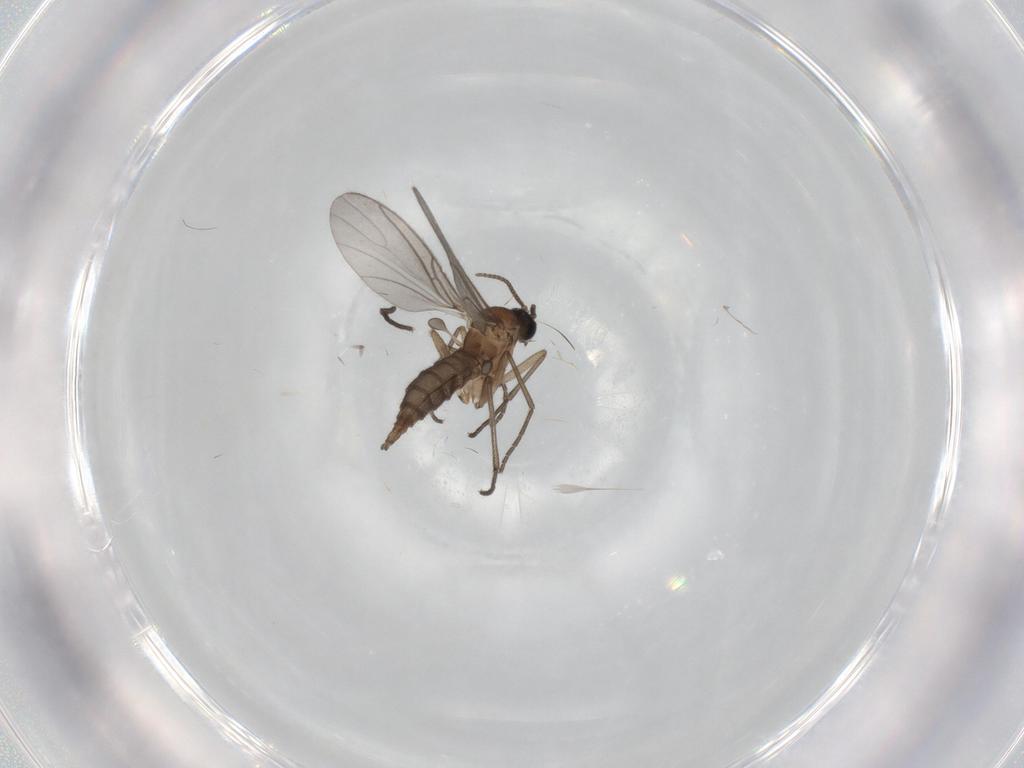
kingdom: Animalia
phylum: Arthropoda
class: Insecta
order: Diptera
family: Sciaridae
